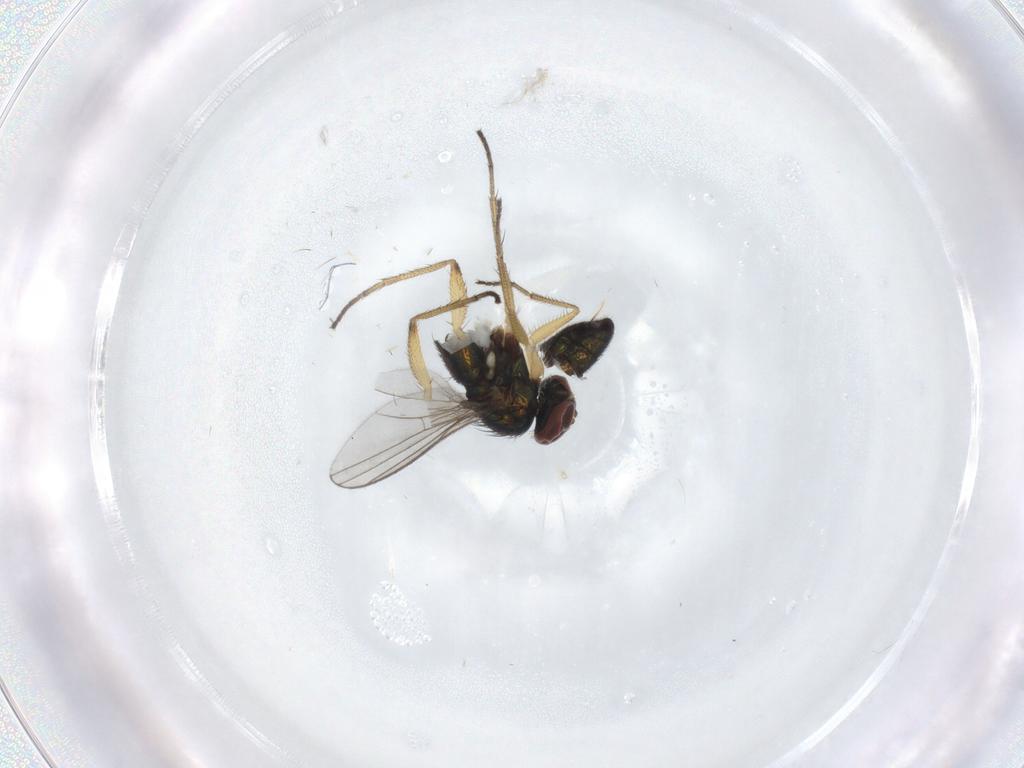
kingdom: Animalia
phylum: Arthropoda
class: Insecta
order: Diptera
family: Dolichopodidae
